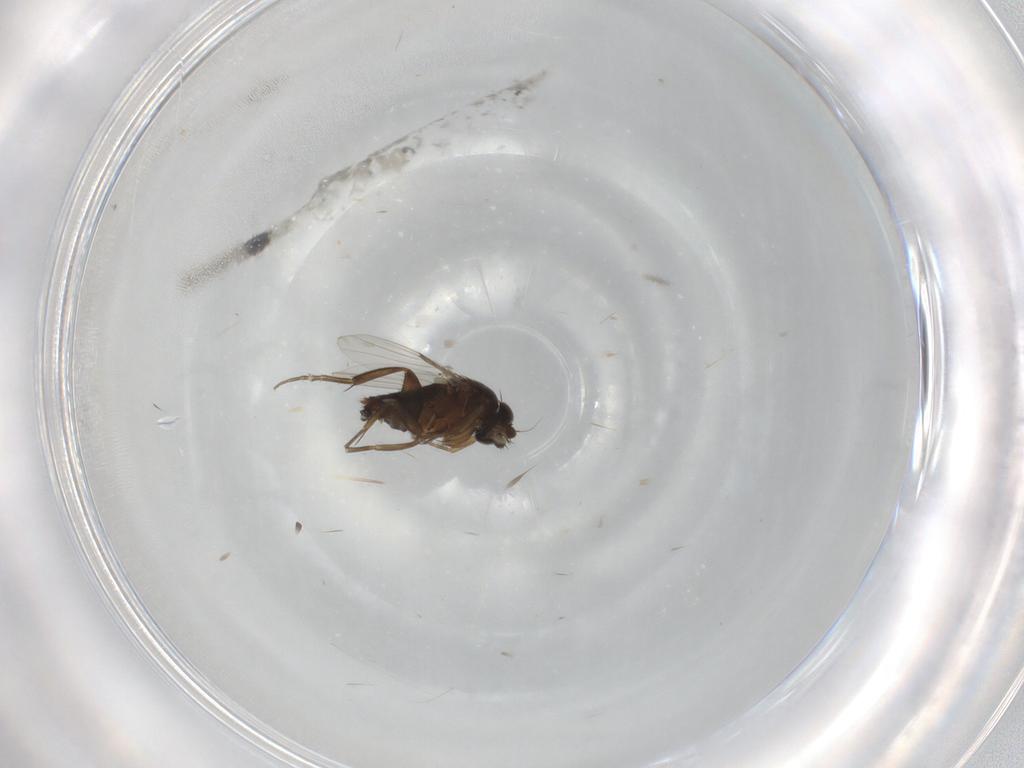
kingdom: Animalia
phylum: Arthropoda
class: Insecta
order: Diptera
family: Phoridae
